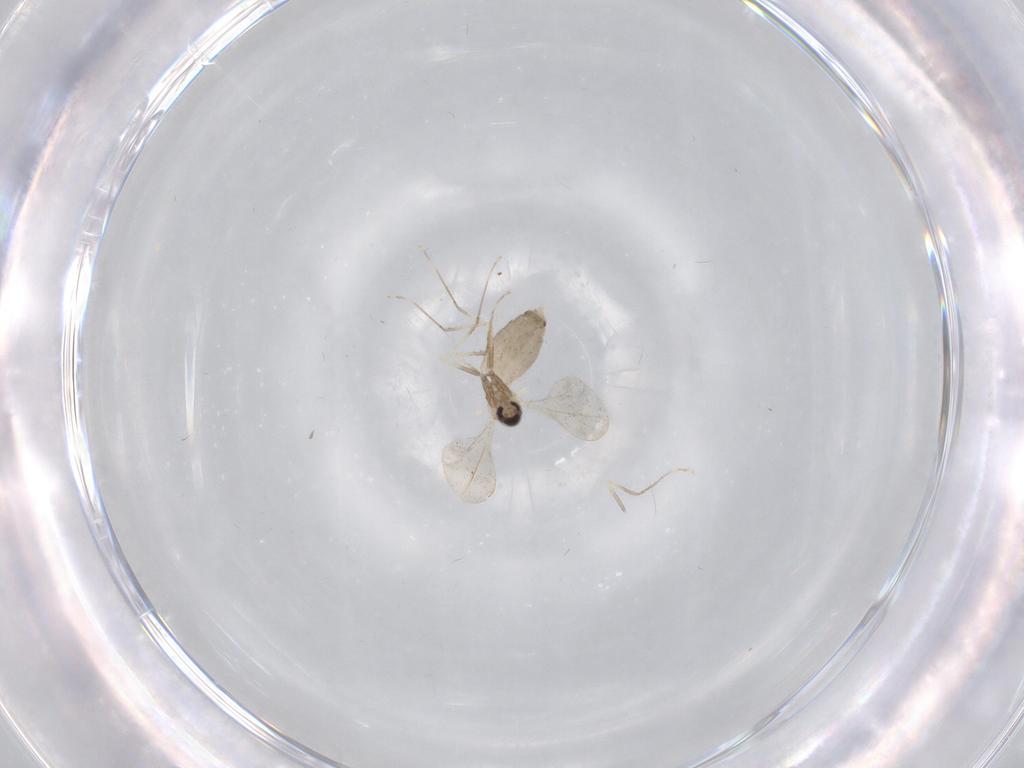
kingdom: Animalia
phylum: Arthropoda
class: Insecta
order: Diptera
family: Cecidomyiidae
